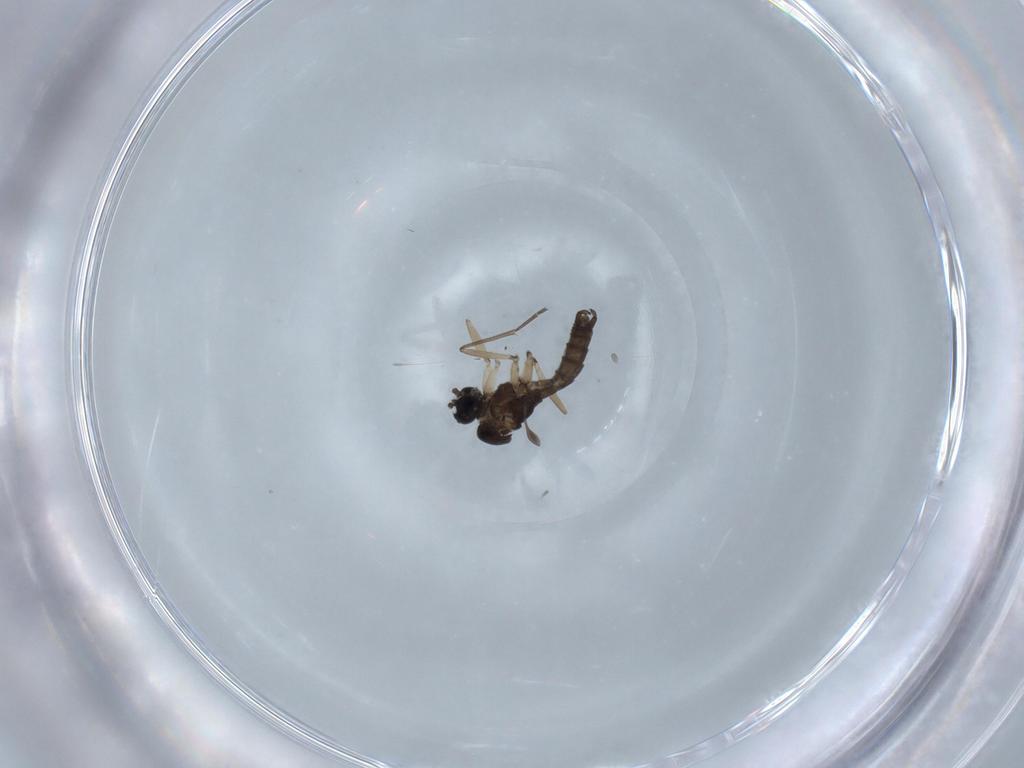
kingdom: Animalia
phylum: Arthropoda
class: Insecta
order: Diptera
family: Sciaridae
